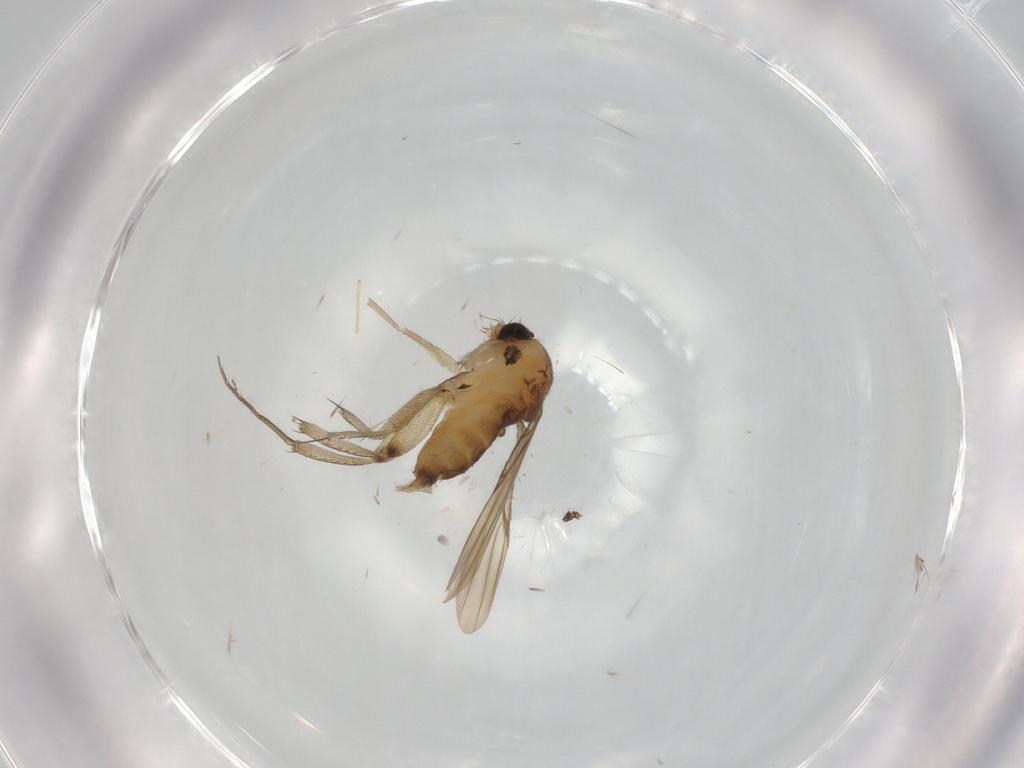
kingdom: Animalia
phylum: Arthropoda
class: Insecta
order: Diptera
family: Phoridae
